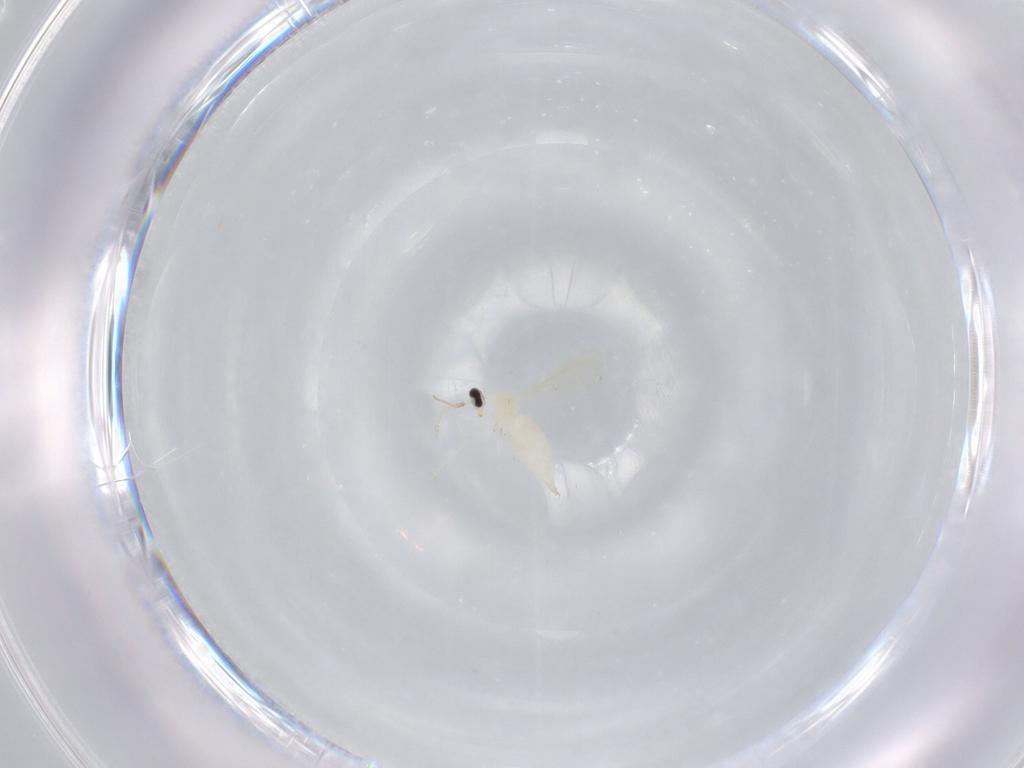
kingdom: Animalia
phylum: Arthropoda
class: Insecta
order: Diptera
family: Cecidomyiidae
